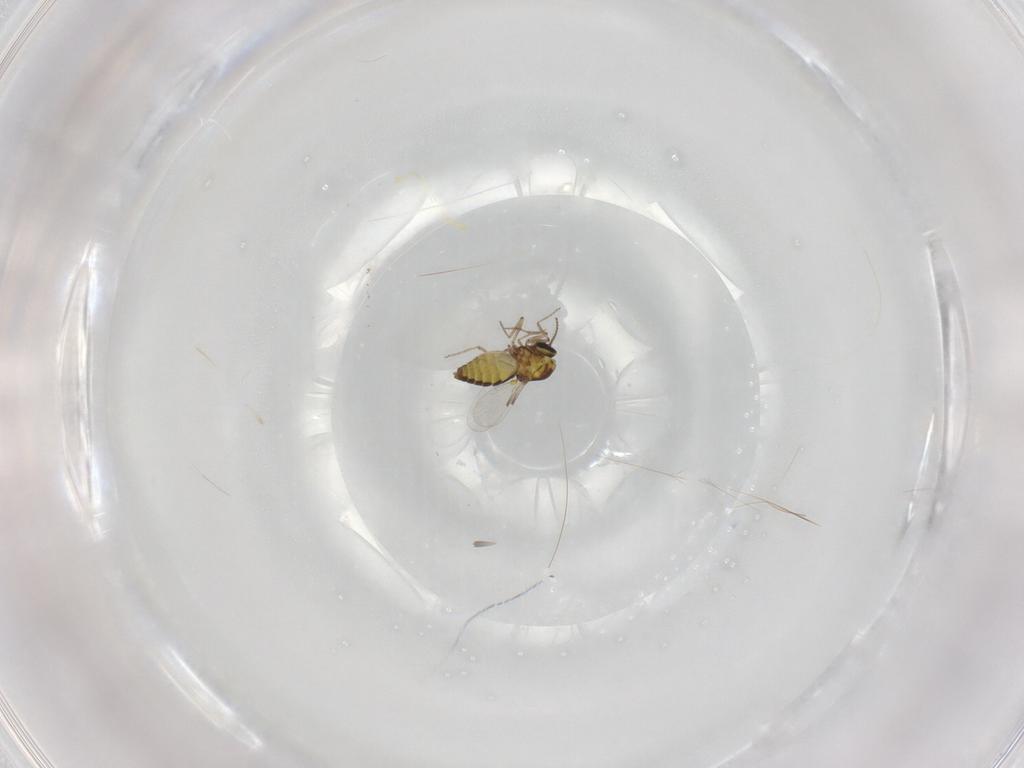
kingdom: Animalia
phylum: Arthropoda
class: Insecta
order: Diptera
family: Ceratopogonidae
